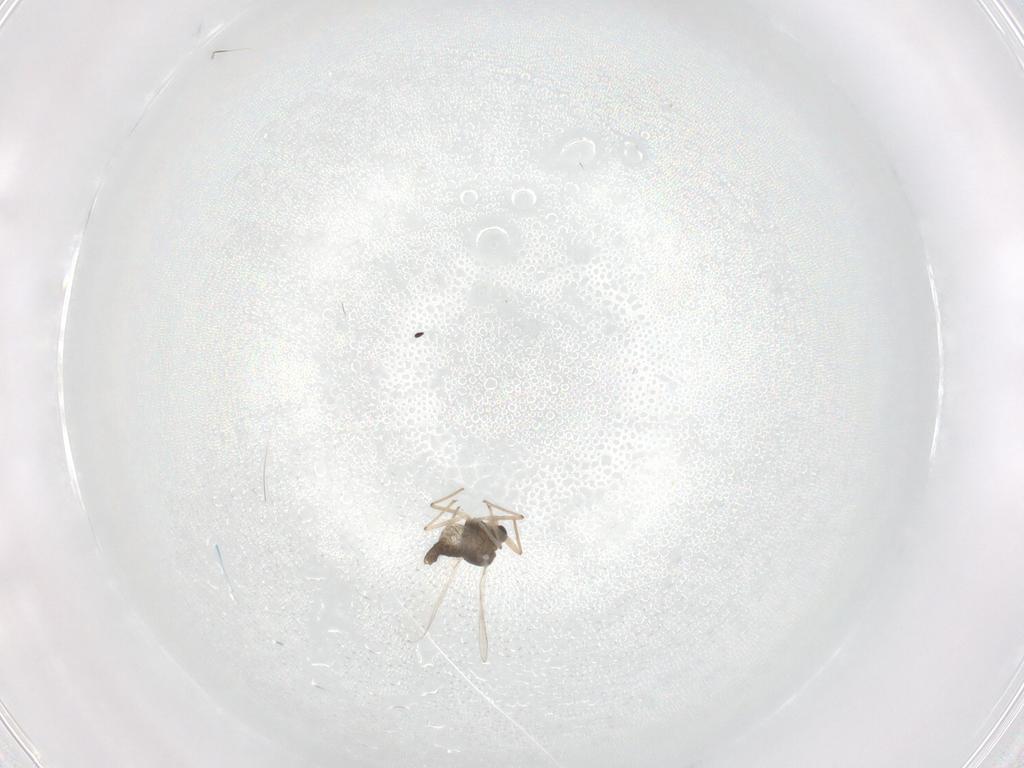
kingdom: Animalia
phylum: Arthropoda
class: Insecta
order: Diptera
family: Chironomidae
